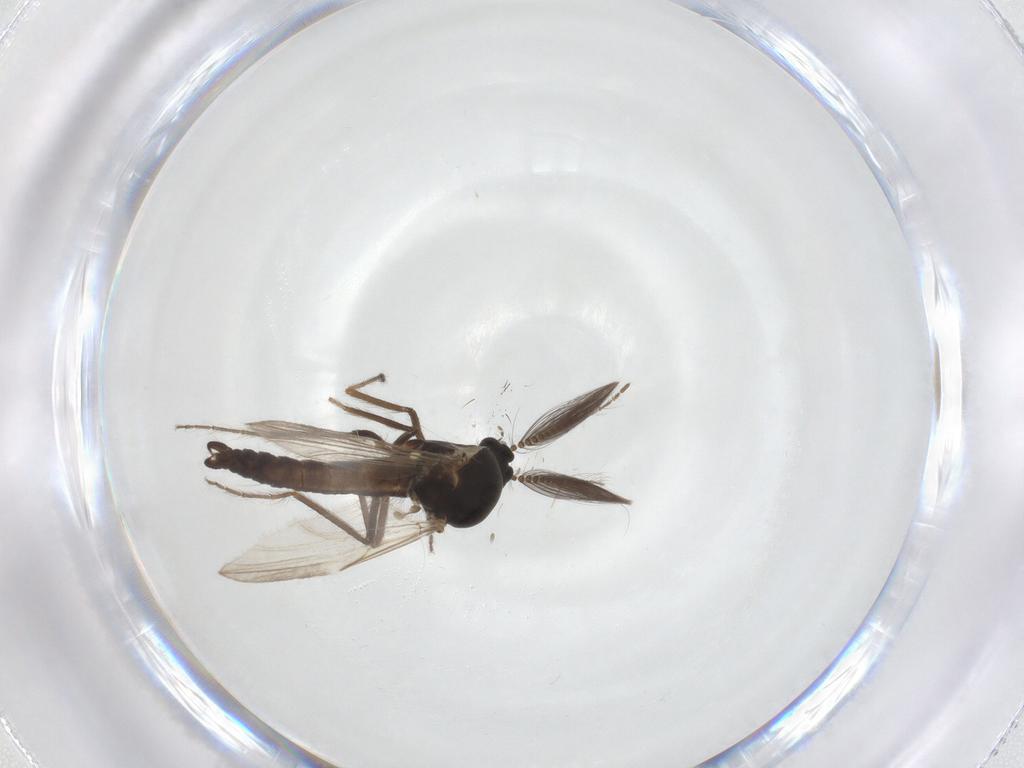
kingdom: Animalia
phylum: Arthropoda
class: Insecta
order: Diptera
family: Ceratopogonidae
